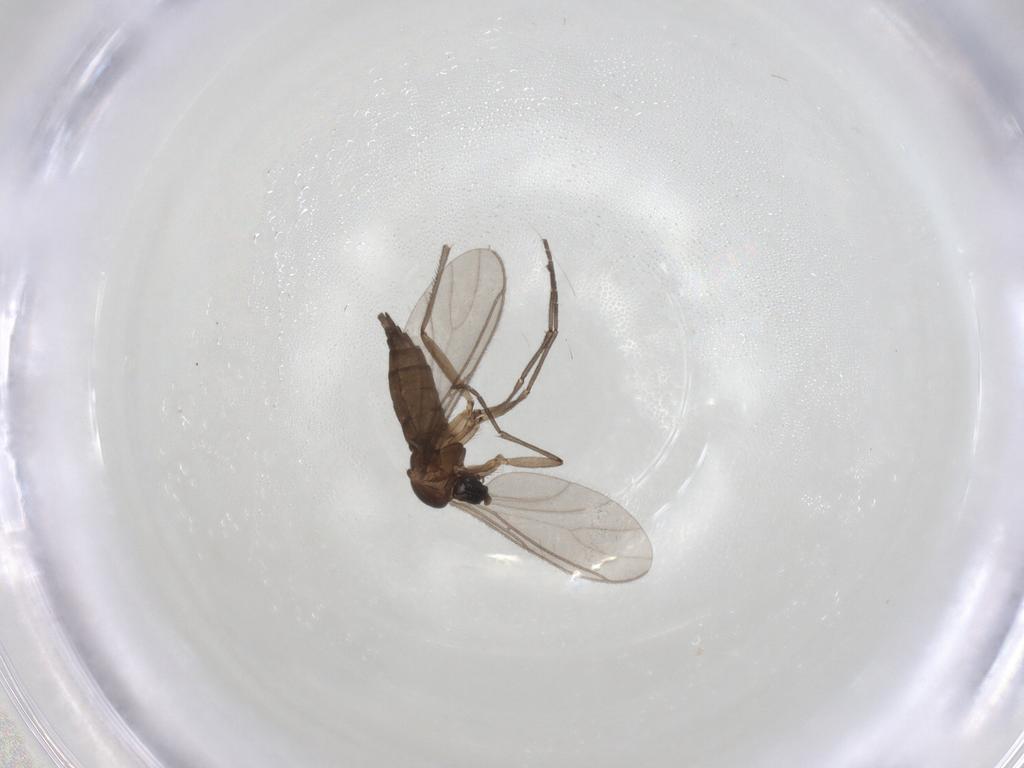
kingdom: Animalia
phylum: Arthropoda
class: Insecta
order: Diptera
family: Sciaridae
